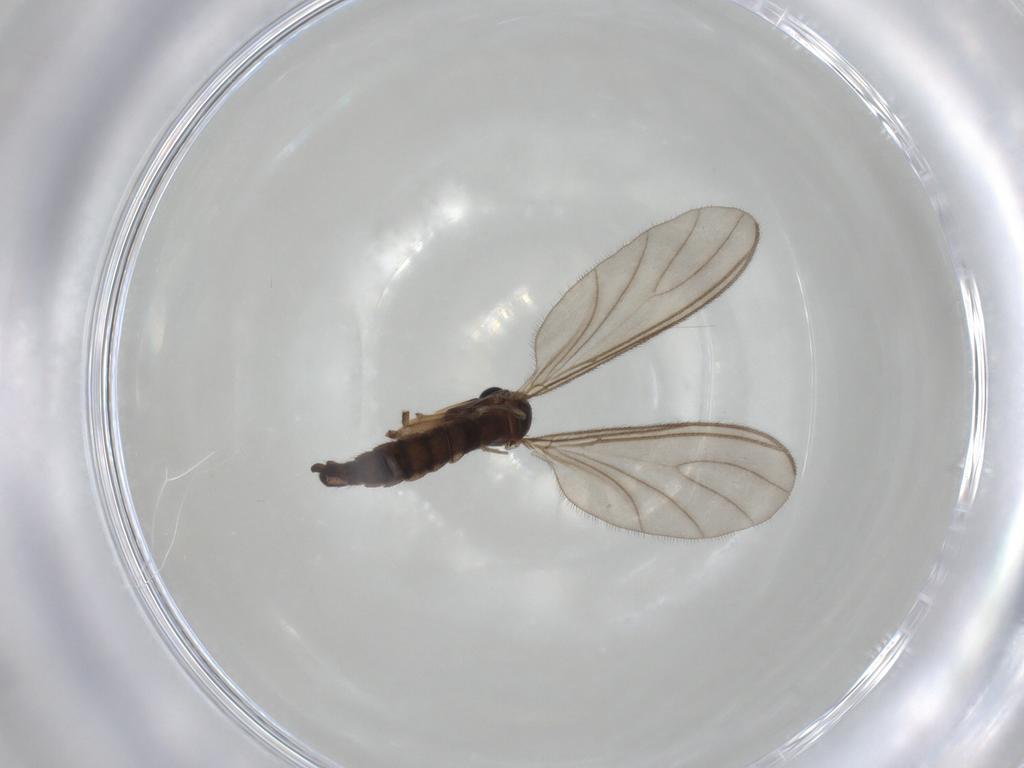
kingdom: Animalia
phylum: Arthropoda
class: Insecta
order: Diptera
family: Sciaridae
